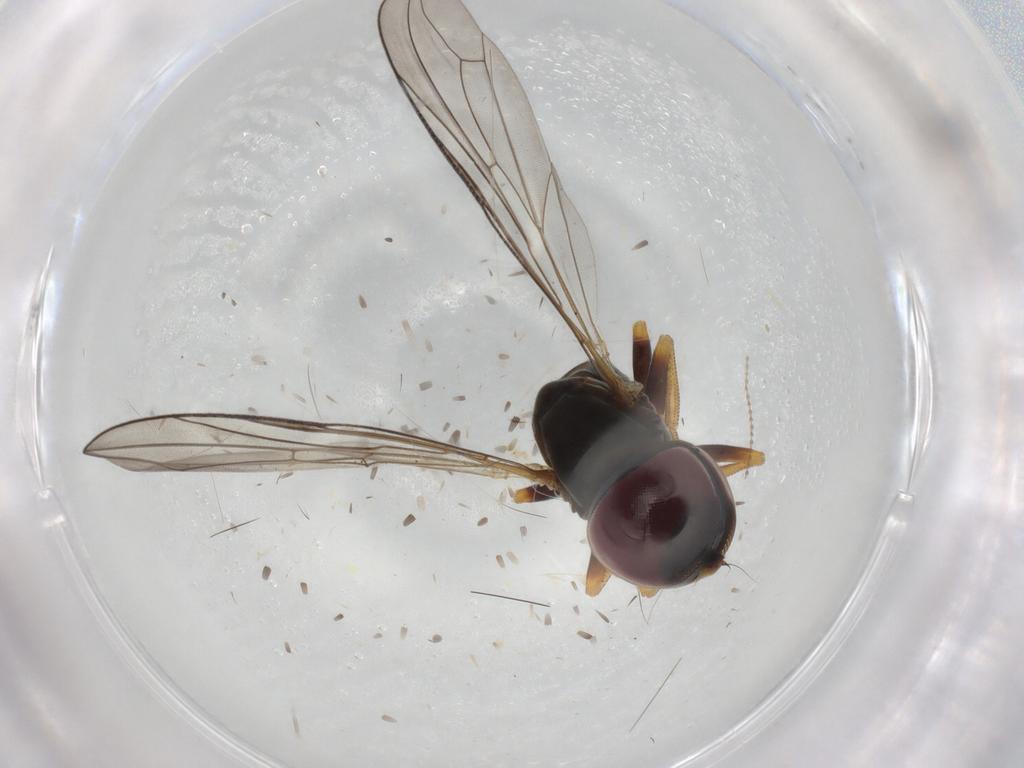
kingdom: Animalia
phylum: Arthropoda
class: Insecta
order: Diptera
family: Pipunculidae
